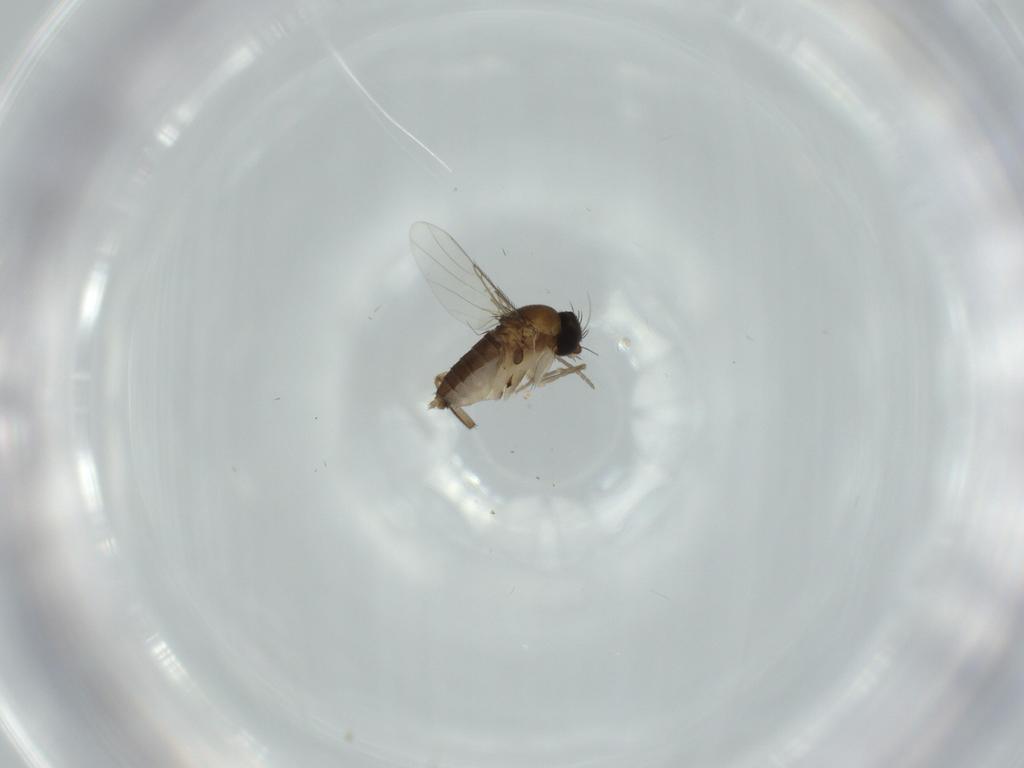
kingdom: Animalia
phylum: Arthropoda
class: Insecta
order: Diptera
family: Phoridae
